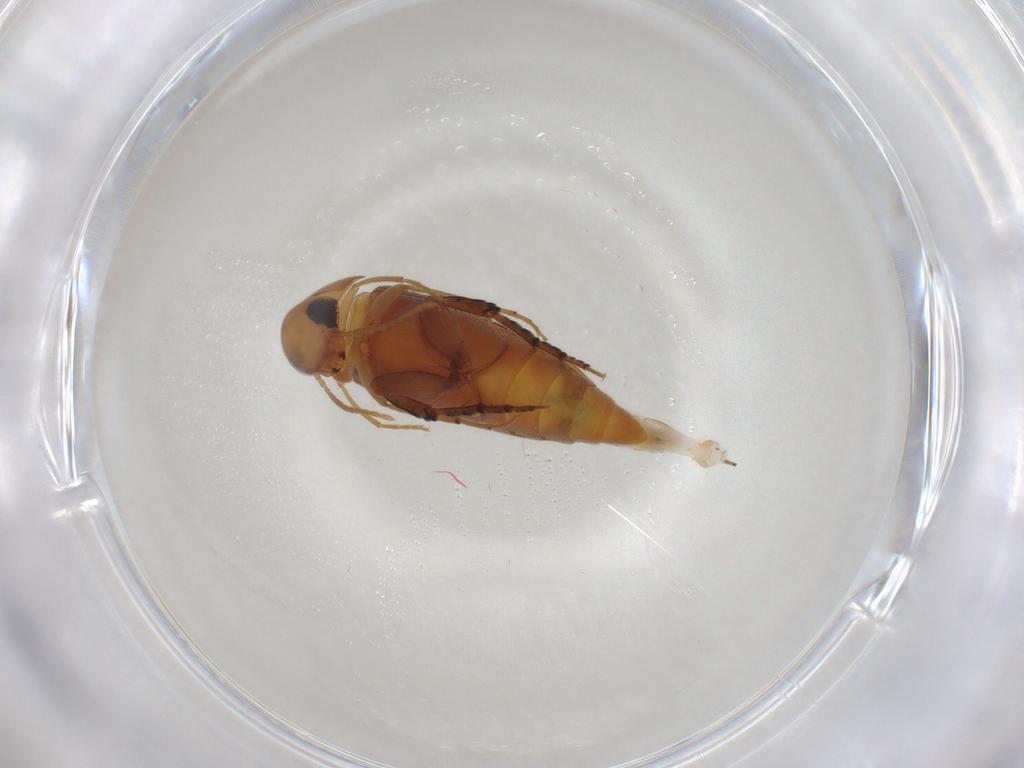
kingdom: Animalia
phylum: Arthropoda
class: Insecta
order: Coleoptera
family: Mordellidae
